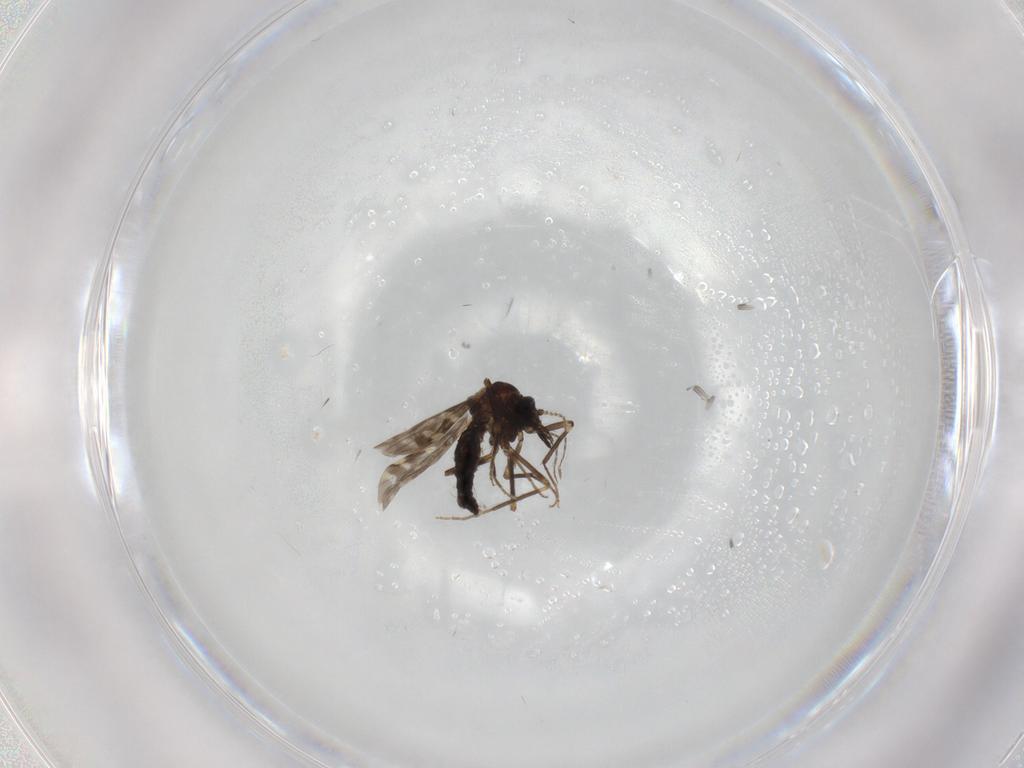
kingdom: Animalia
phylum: Arthropoda
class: Insecta
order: Diptera
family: Ceratopogonidae
